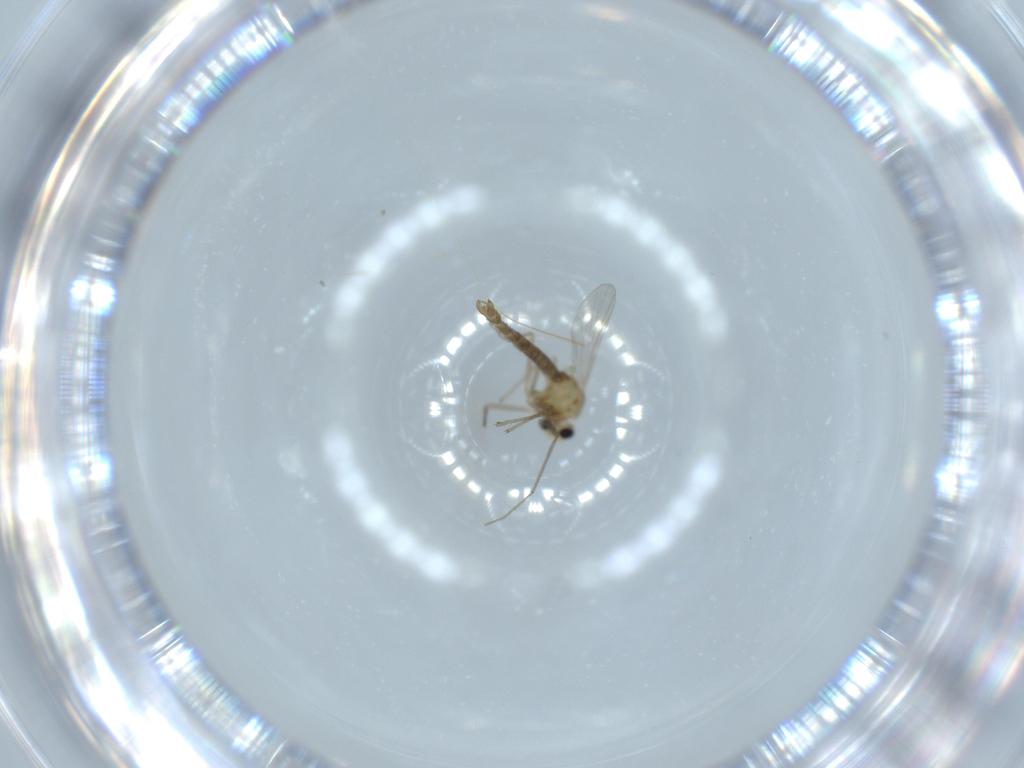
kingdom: Animalia
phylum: Arthropoda
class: Insecta
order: Diptera
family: Chironomidae
